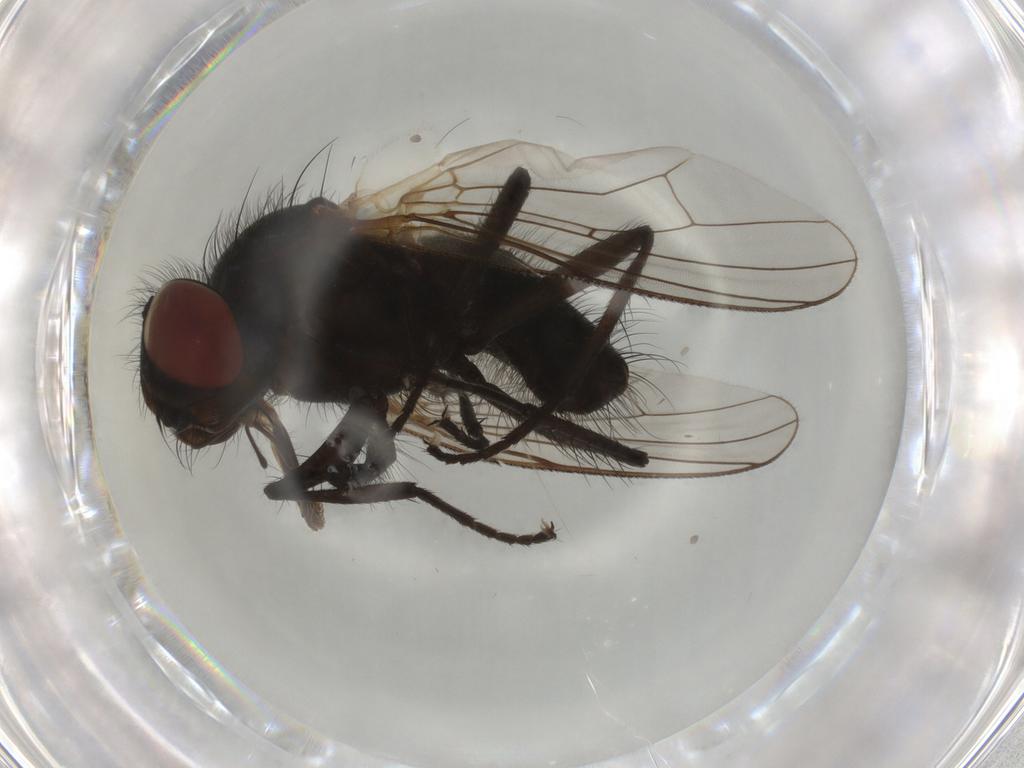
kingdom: Animalia
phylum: Arthropoda
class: Insecta
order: Diptera
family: Anthomyiidae
